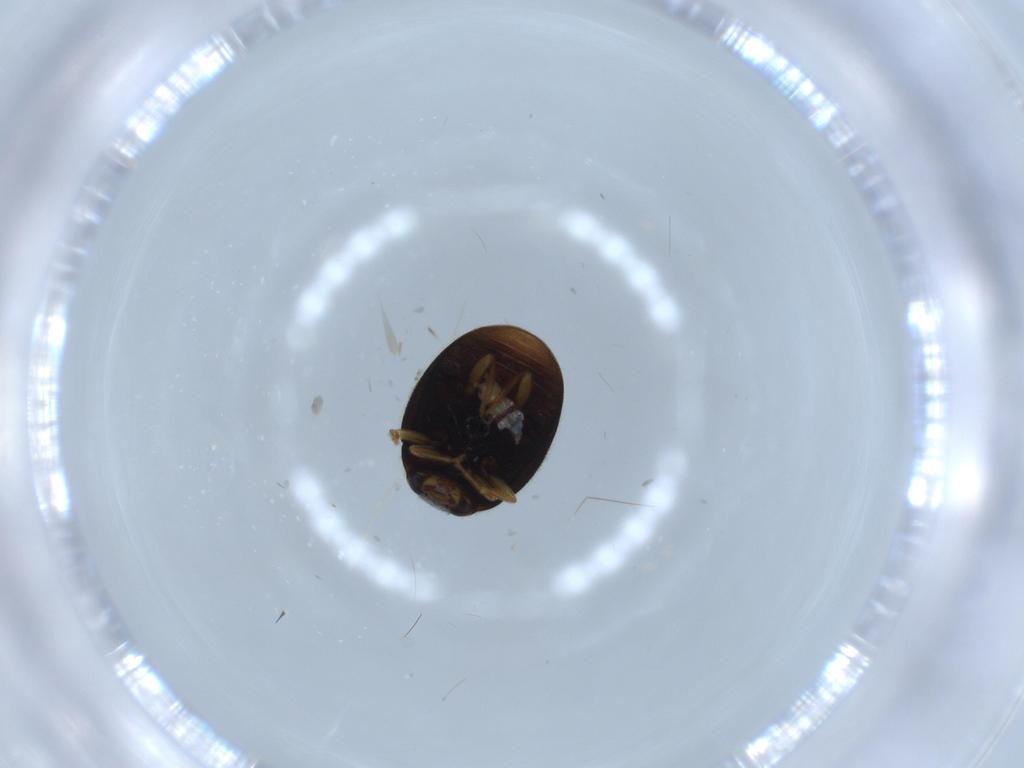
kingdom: Animalia
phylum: Arthropoda
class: Insecta
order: Coleoptera
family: Coccinellidae
